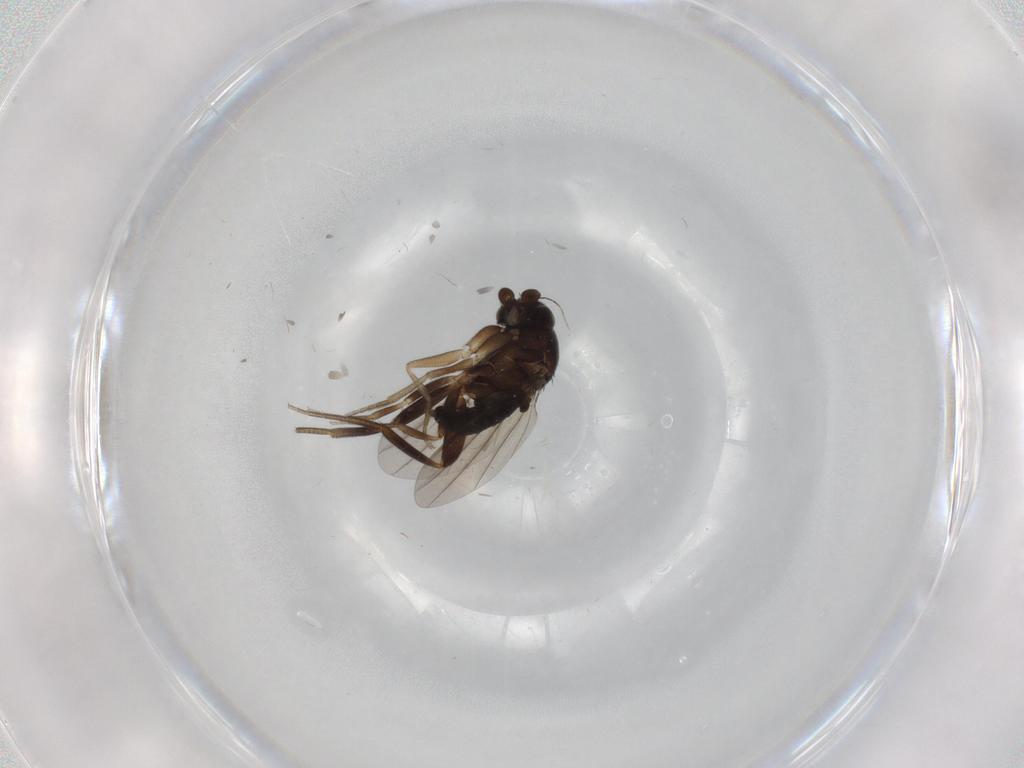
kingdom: Animalia
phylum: Arthropoda
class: Insecta
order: Diptera
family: Phoridae
